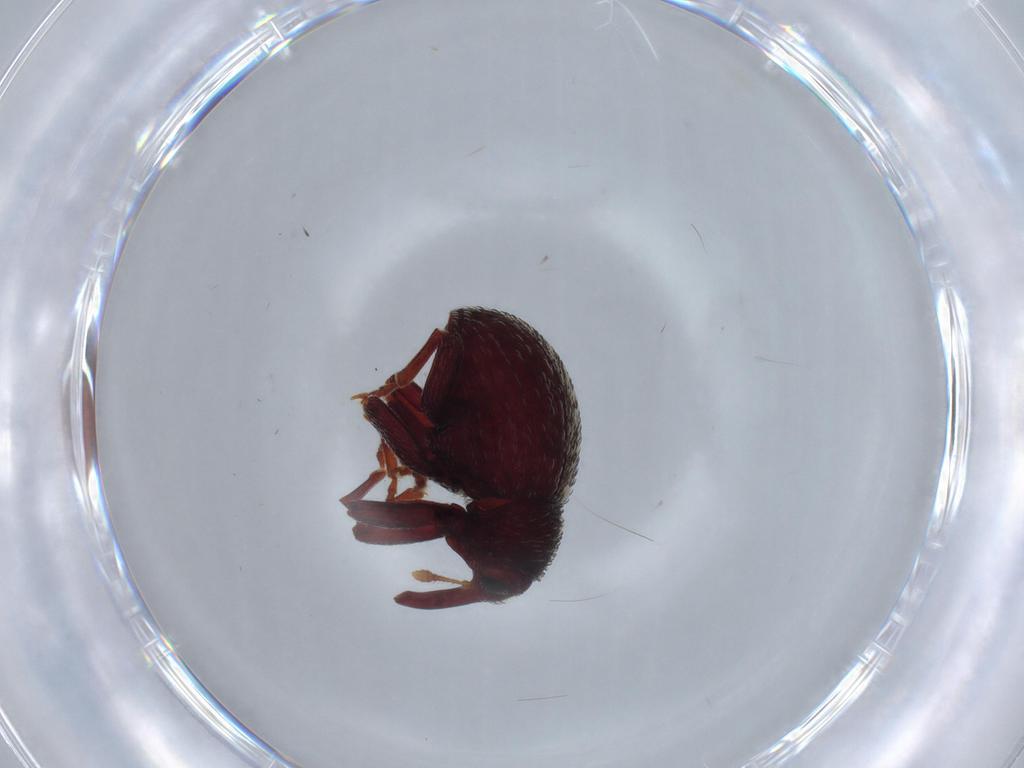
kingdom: Animalia
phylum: Arthropoda
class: Insecta
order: Coleoptera
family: Curculionidae
